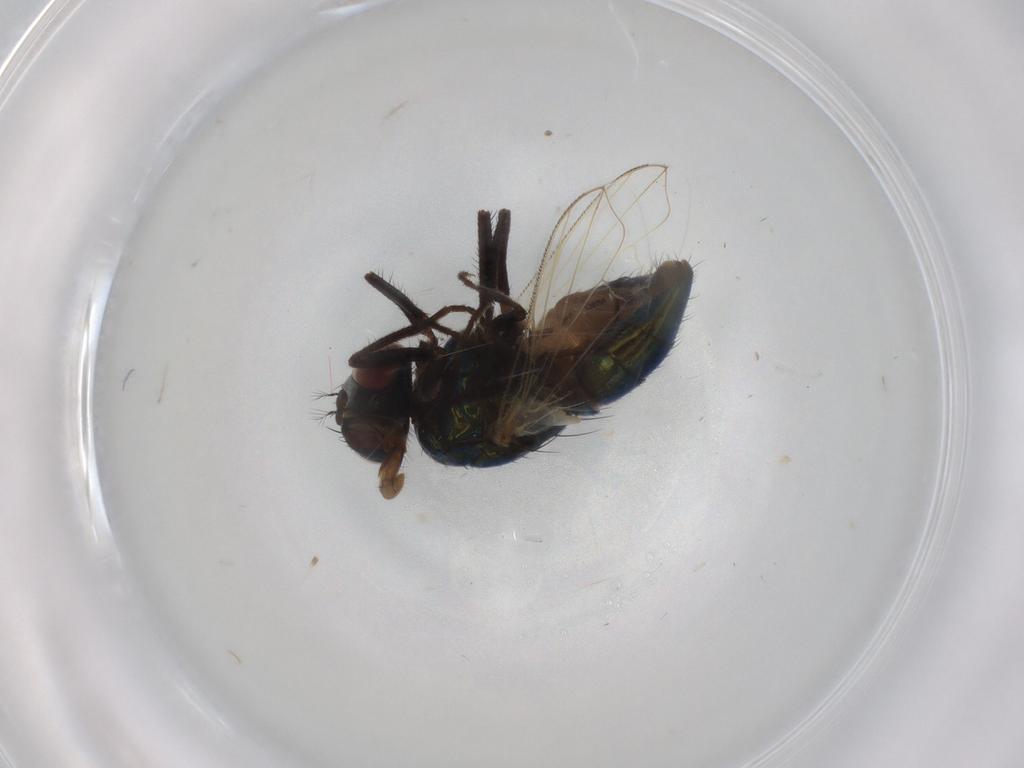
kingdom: Animalia
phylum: Arthropoda
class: Insecta
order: Diptera
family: Muscidae
